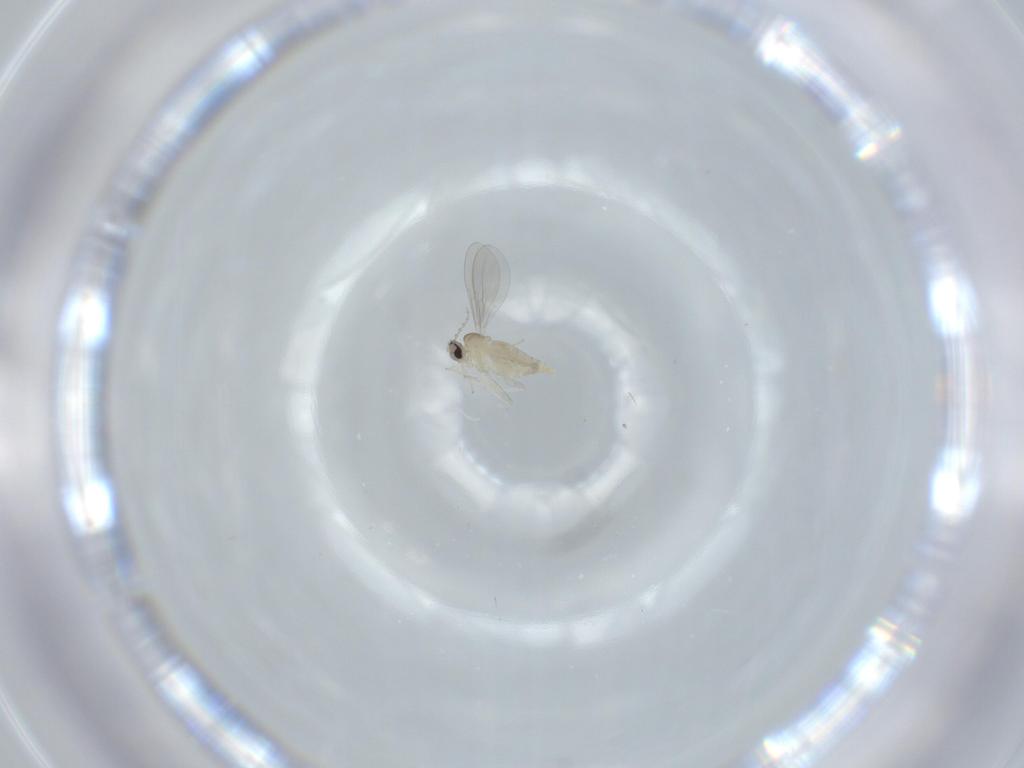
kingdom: Animalia
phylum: Arthropoda
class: Insecta
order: Diptera
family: Cecidomyiidae
